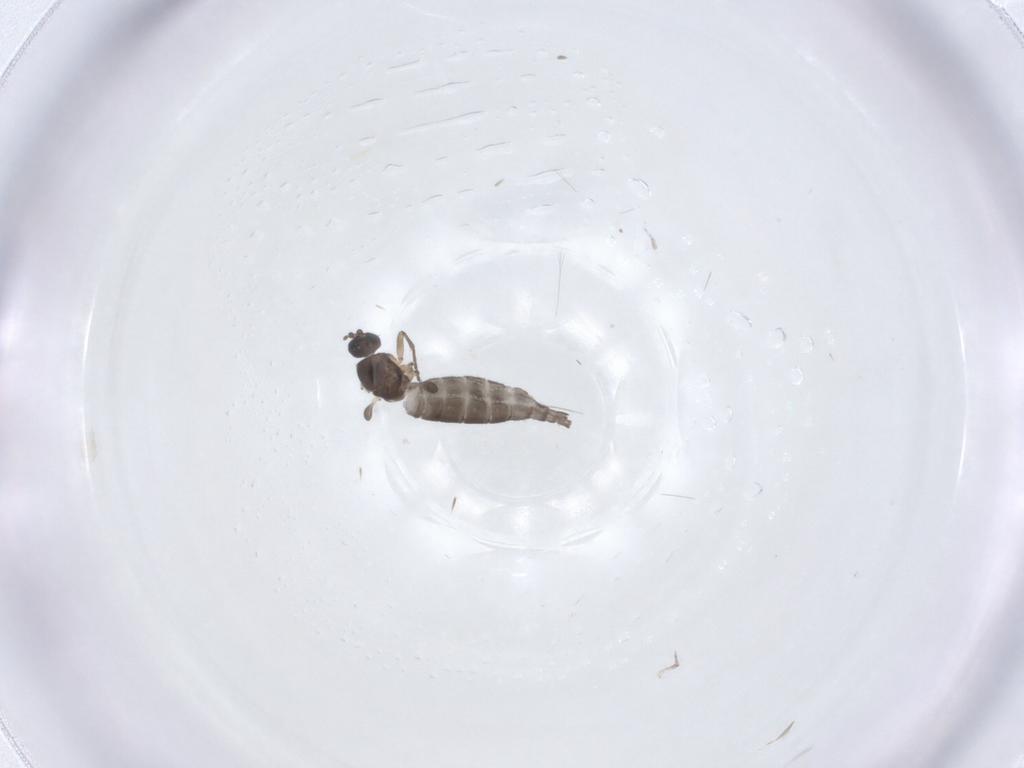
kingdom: Animalia
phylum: Arthropoda
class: Insecta
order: Diptera
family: Sciaridae
